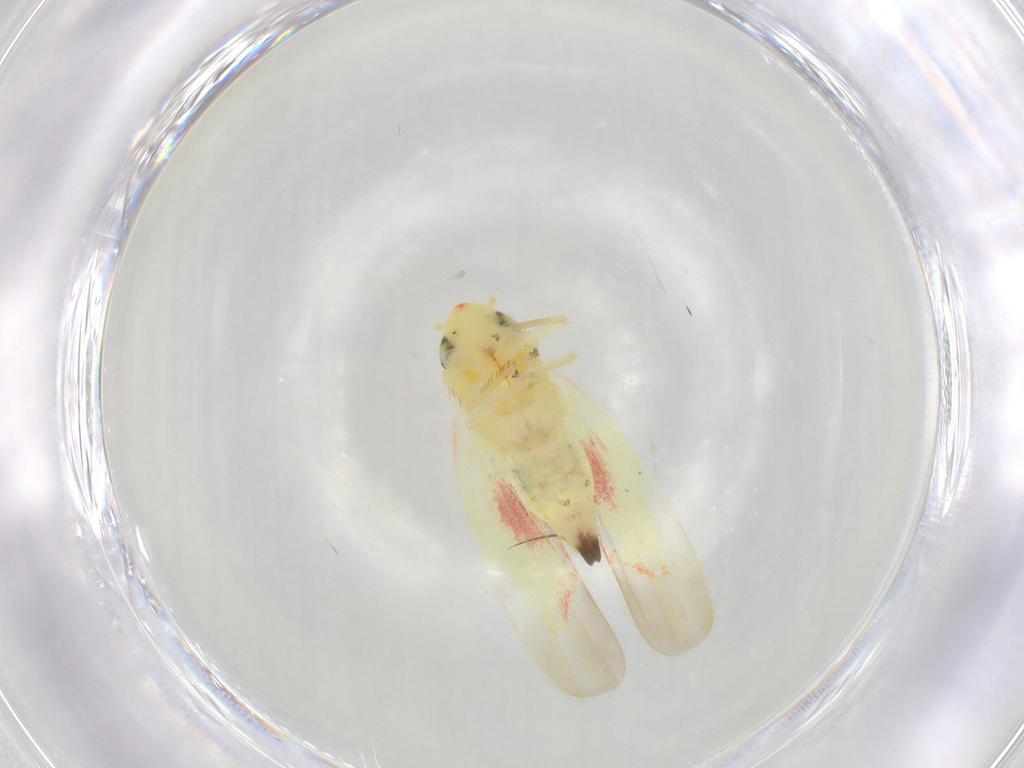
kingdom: Animalia
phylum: Arthropoda
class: Insecta
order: Hemiptera
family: Cicadellidae
